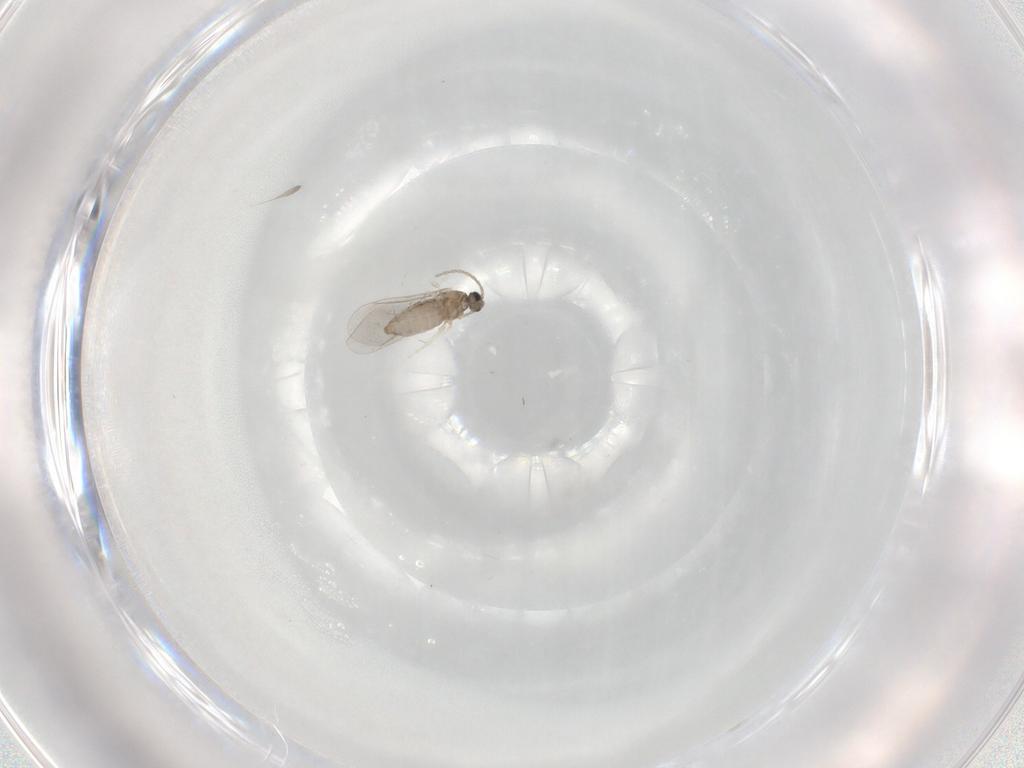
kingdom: Animalia
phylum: Arthropoda
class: Insecta
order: Diptera
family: Cecidomyiidae
